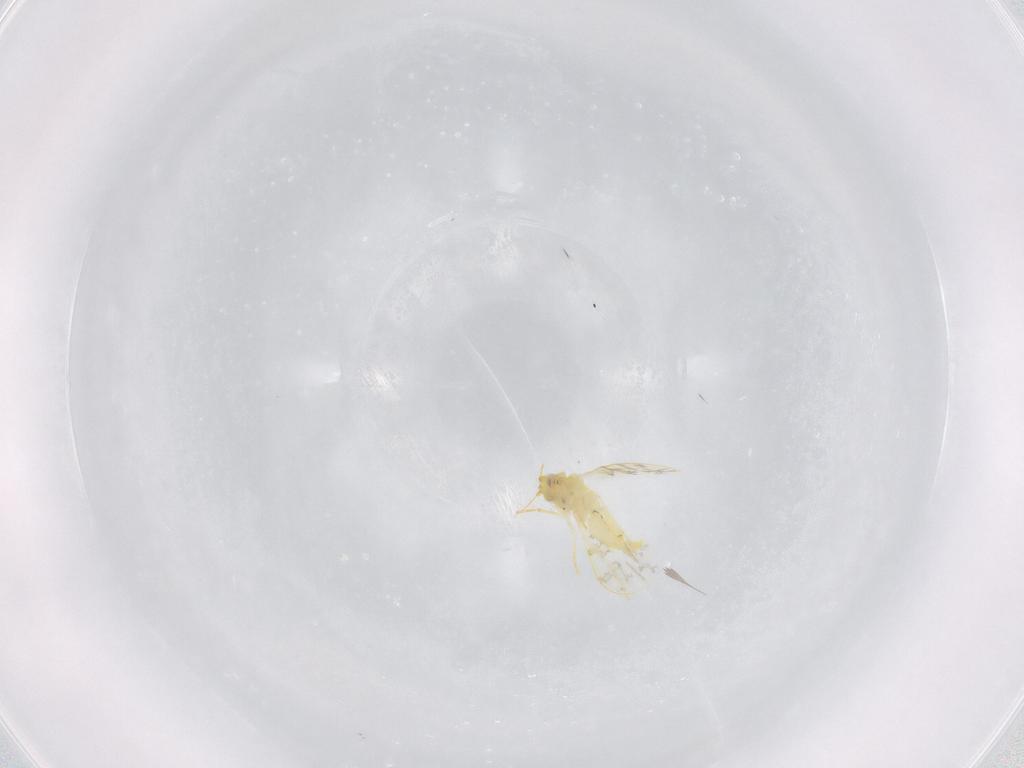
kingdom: Animalia
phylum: Arthropoda
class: Insecta
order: Hemiptera
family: Aleyrodidae
